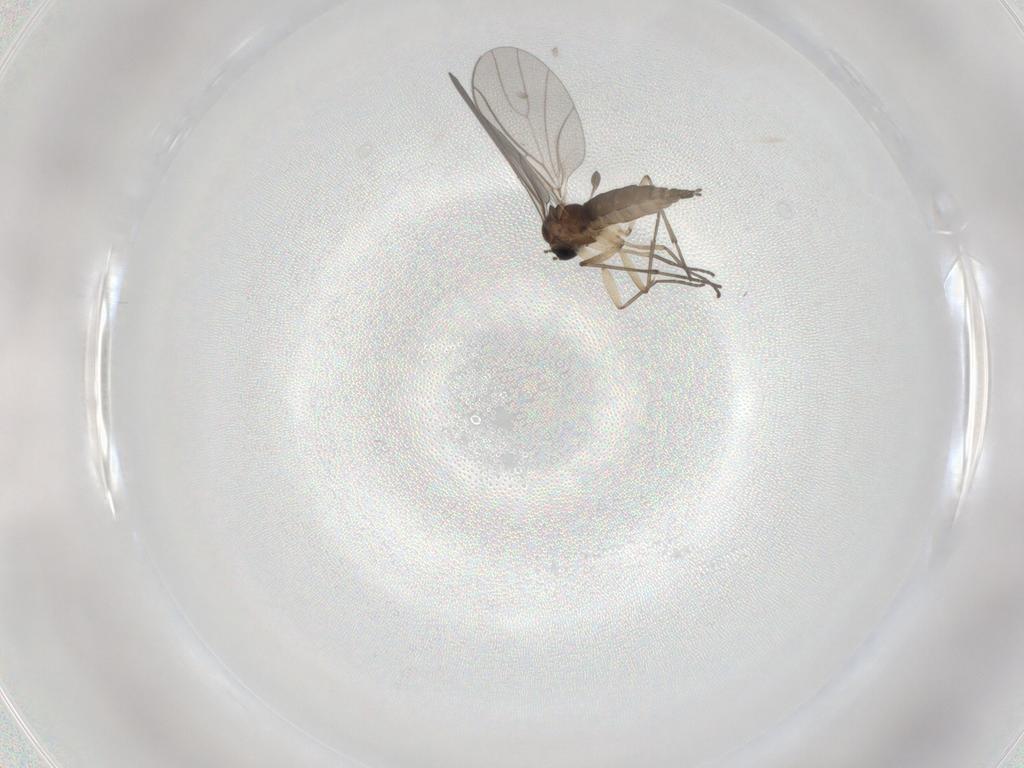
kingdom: Animalia
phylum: Arthropoda
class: Insecta
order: Diptera
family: Sciaridae
